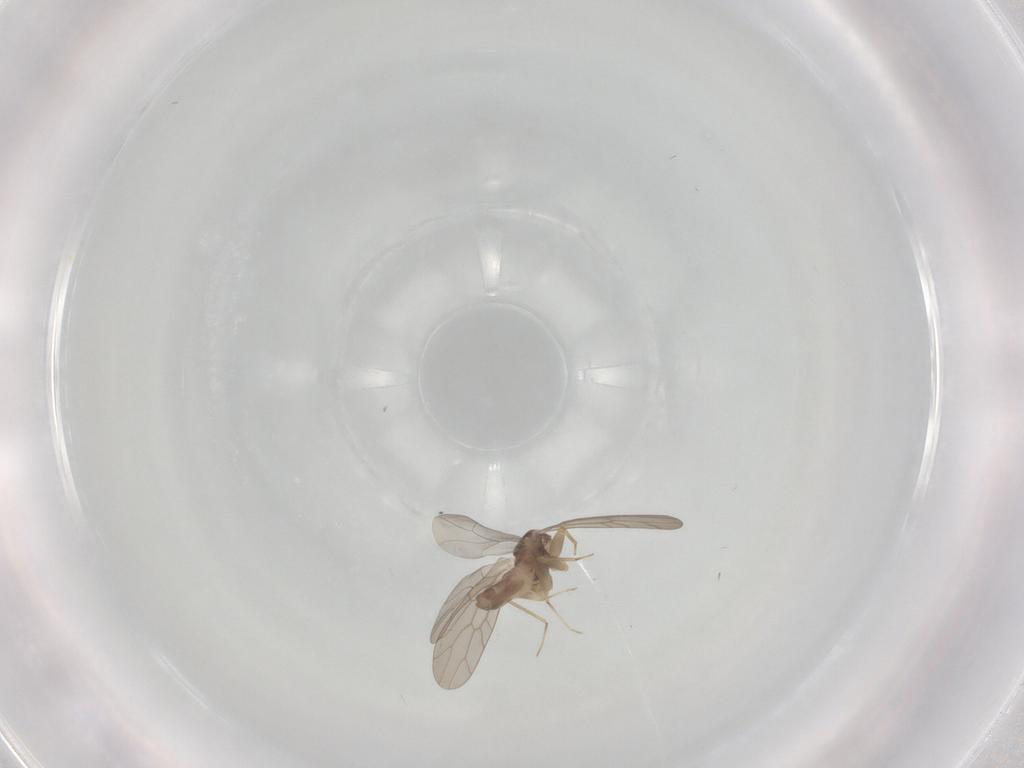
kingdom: Animalia
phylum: Arthropoda
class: Insecta
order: Psocodea
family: Lepidopsocidae
